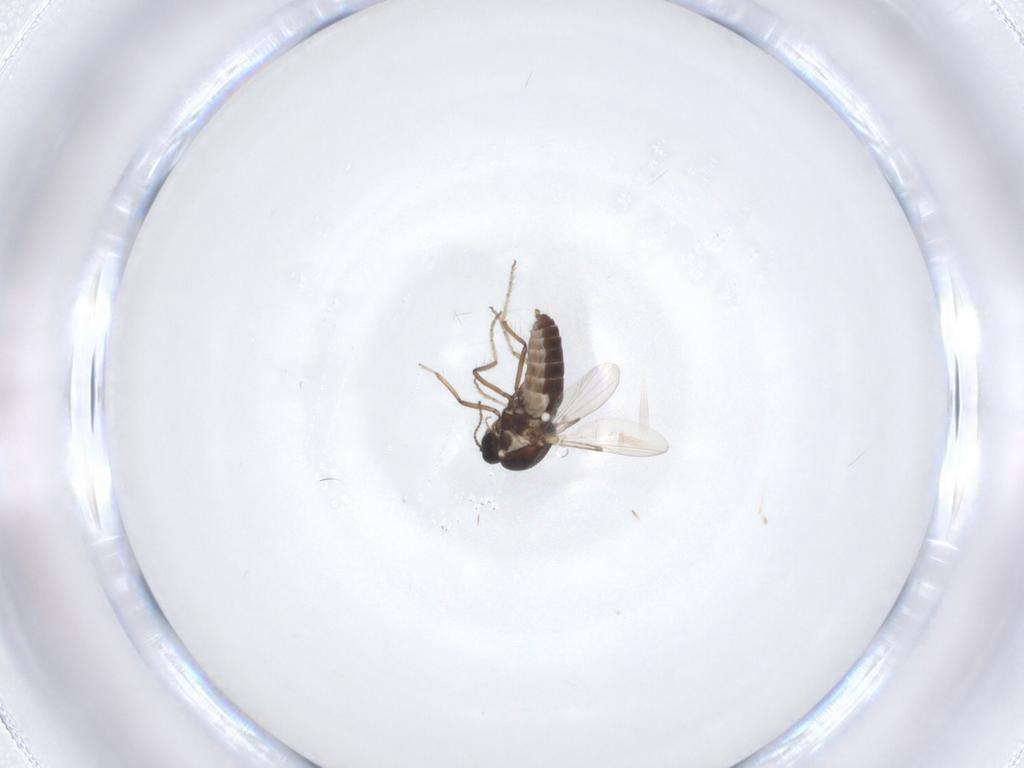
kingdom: Animalia
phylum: Arthropoda
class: Insecta
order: Diptera
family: Ceratopogonidae
